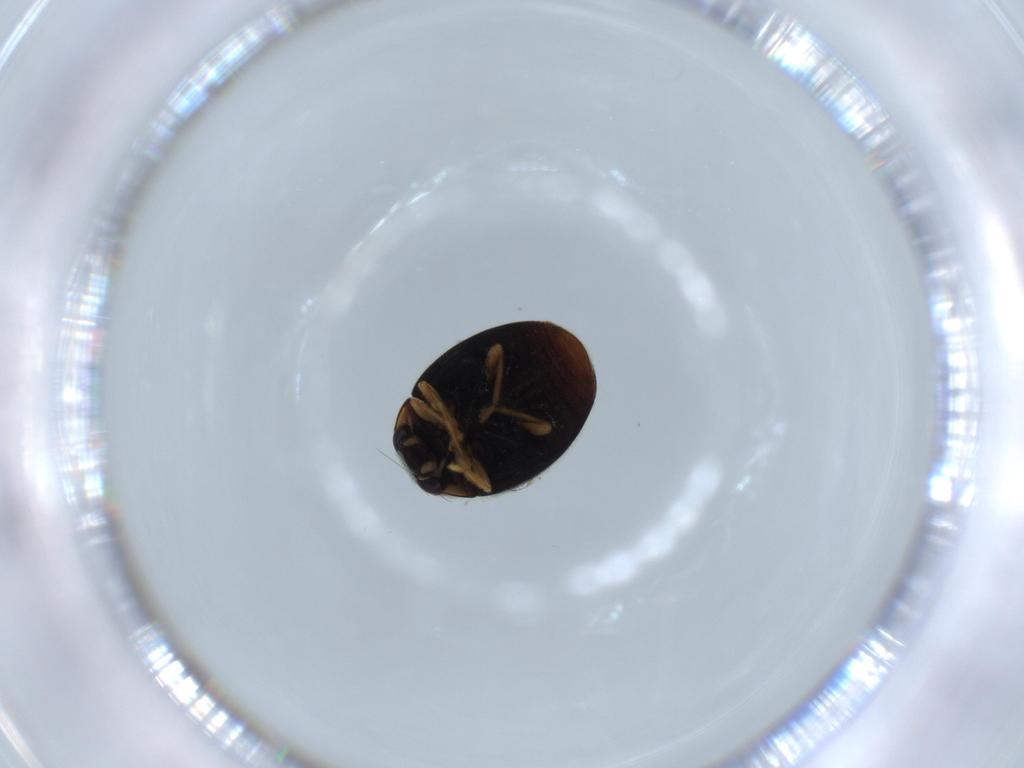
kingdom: Animalia
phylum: Arthropoda
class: Insecta
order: Coleoptera
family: Coccinellidae
